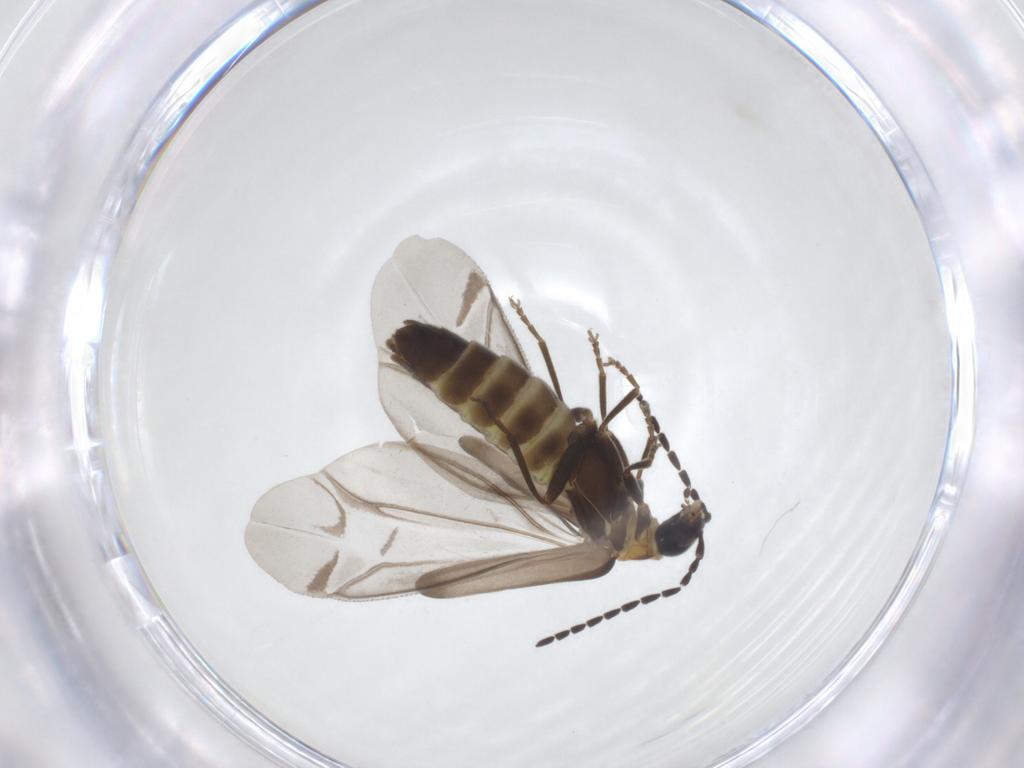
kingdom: Animalia
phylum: Arthropoda
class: Insecta
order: Coleoptera
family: Cantharidae
